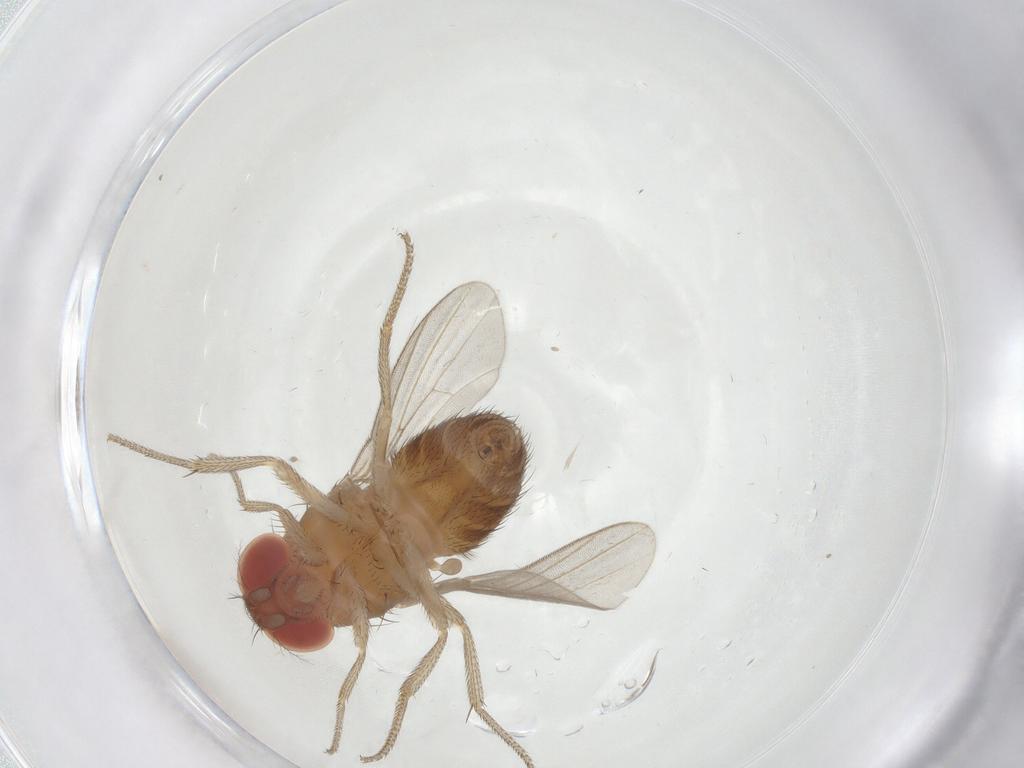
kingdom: Animalia
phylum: Arthropoda
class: Insecta
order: Diptera
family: Drosophilidae
